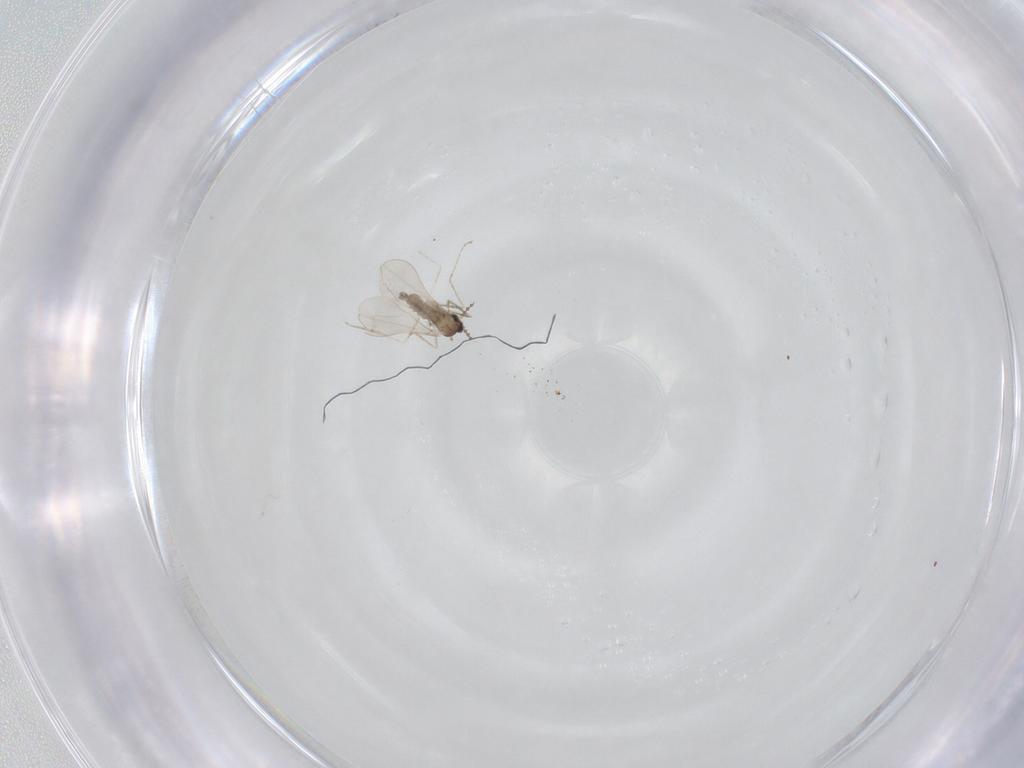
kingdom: Animalia
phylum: Arthropoda
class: Insecta
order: Diptera
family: Cecidomyiidae
